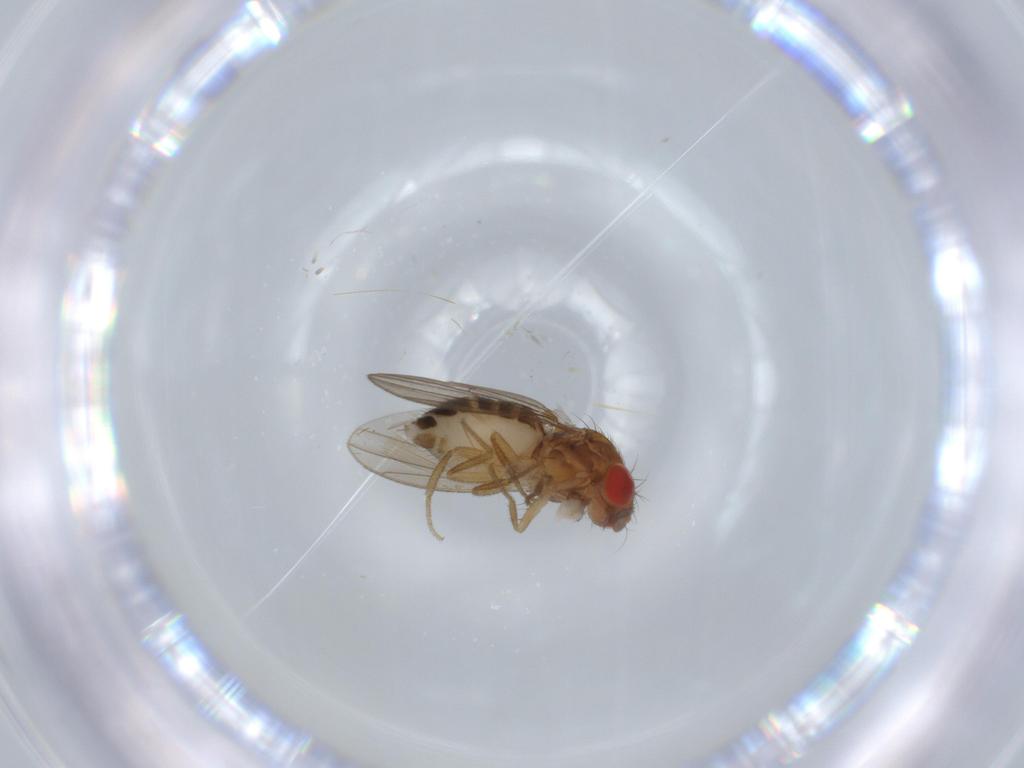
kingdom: Animalia
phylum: Arthropoda
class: Insecta
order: Diptera
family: Drosophilidae
